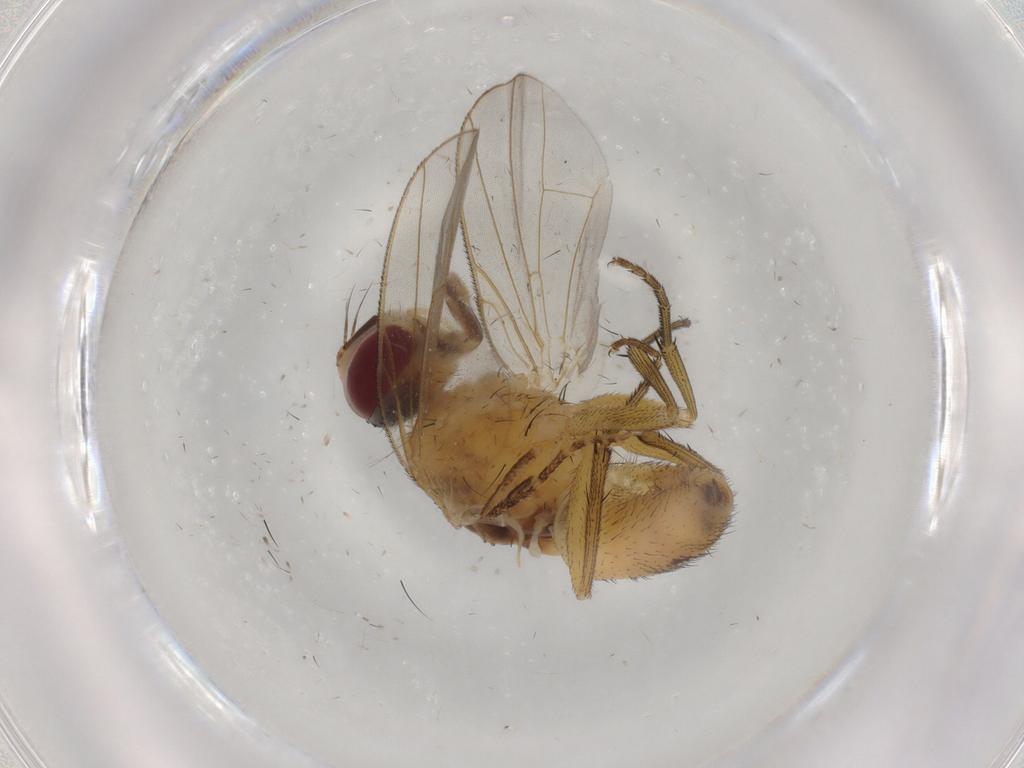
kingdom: Animalia
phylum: Arthropoda
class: Insecta
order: Diptera
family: Muscidae
